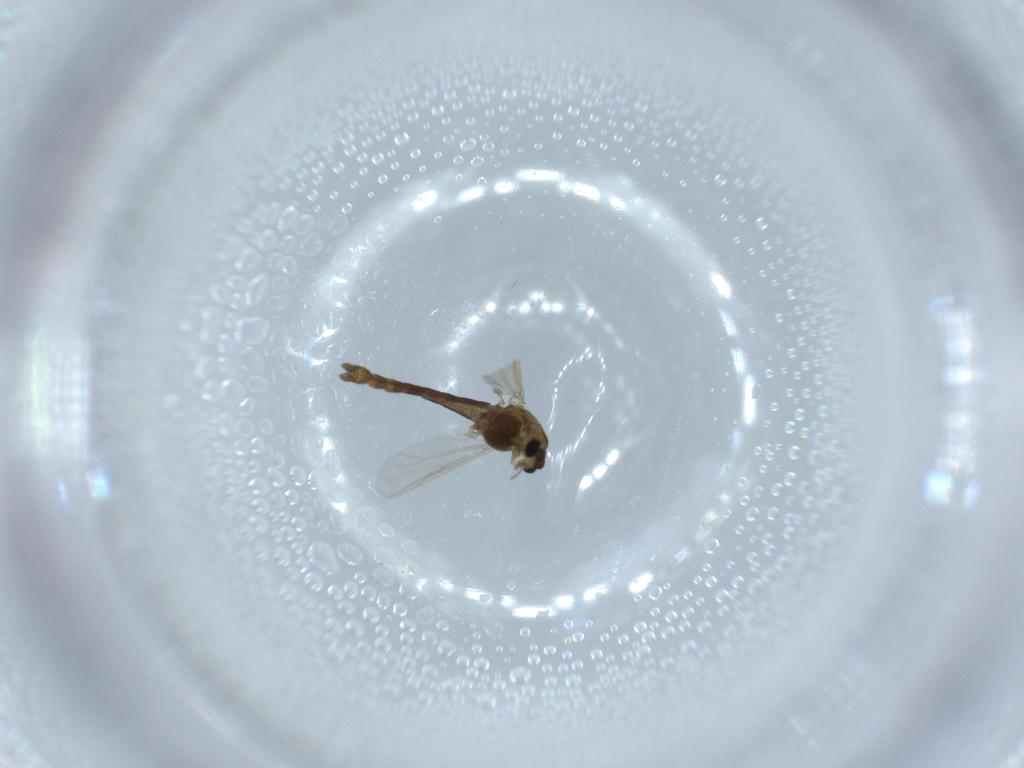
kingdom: Animalia
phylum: Arthropoda
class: Insecta
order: Diptera
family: Chironomidae
